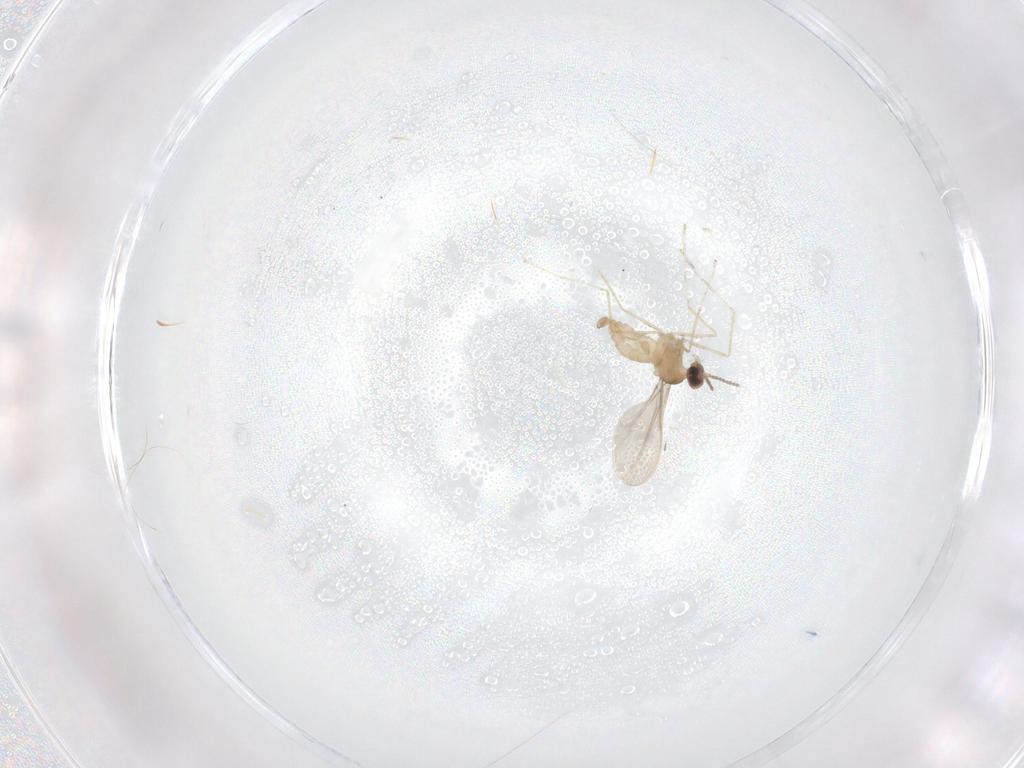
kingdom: Animalia
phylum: Arthropoda
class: Insecta
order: Diptera
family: Cecidomyiidae
